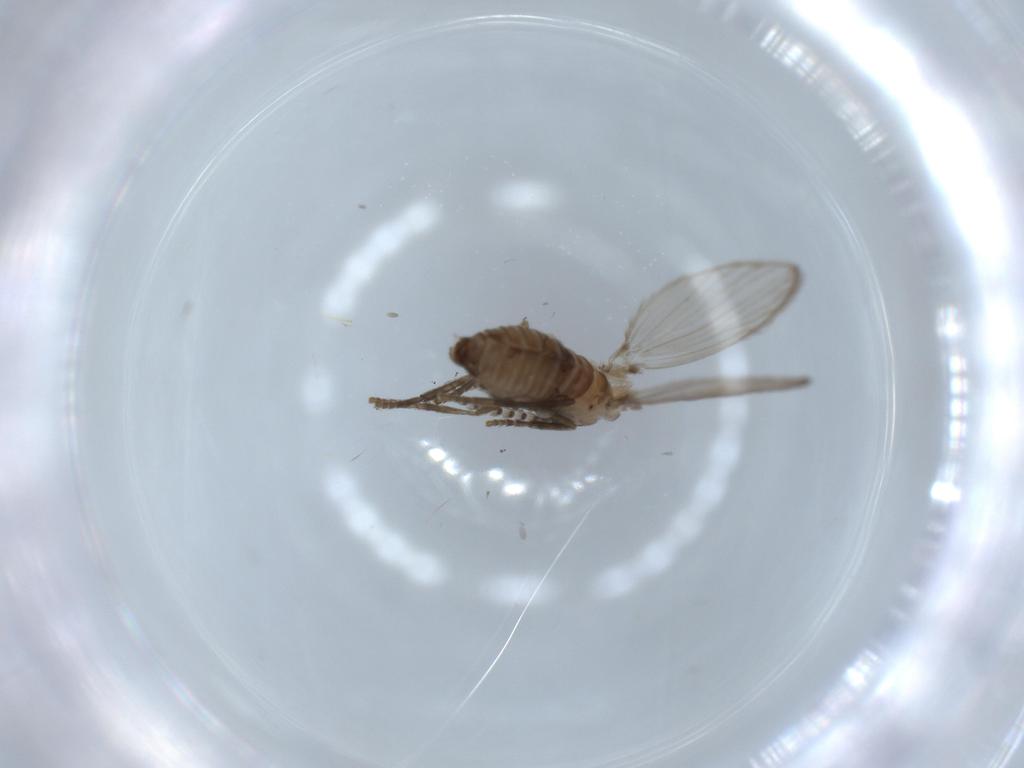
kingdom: Animalia
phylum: Arthropoda
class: Insecta
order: Diptera
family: Psychodidae
